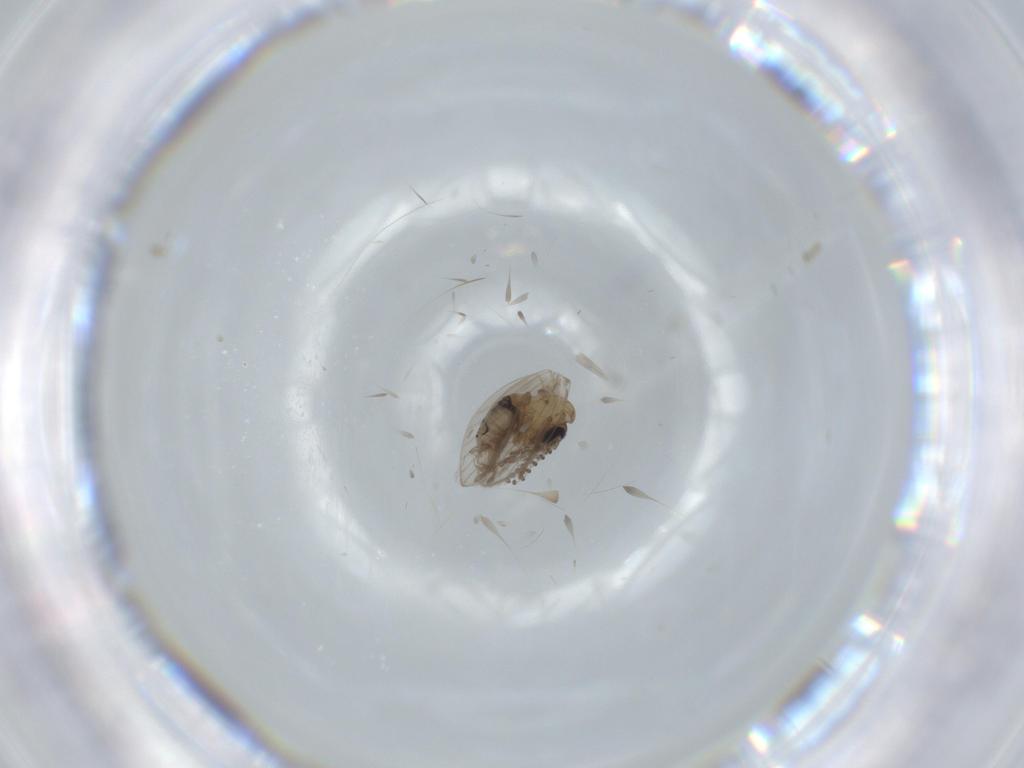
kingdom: Animalia
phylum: Arthropoda
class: Insecta
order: Diptera
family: Psychodidae
